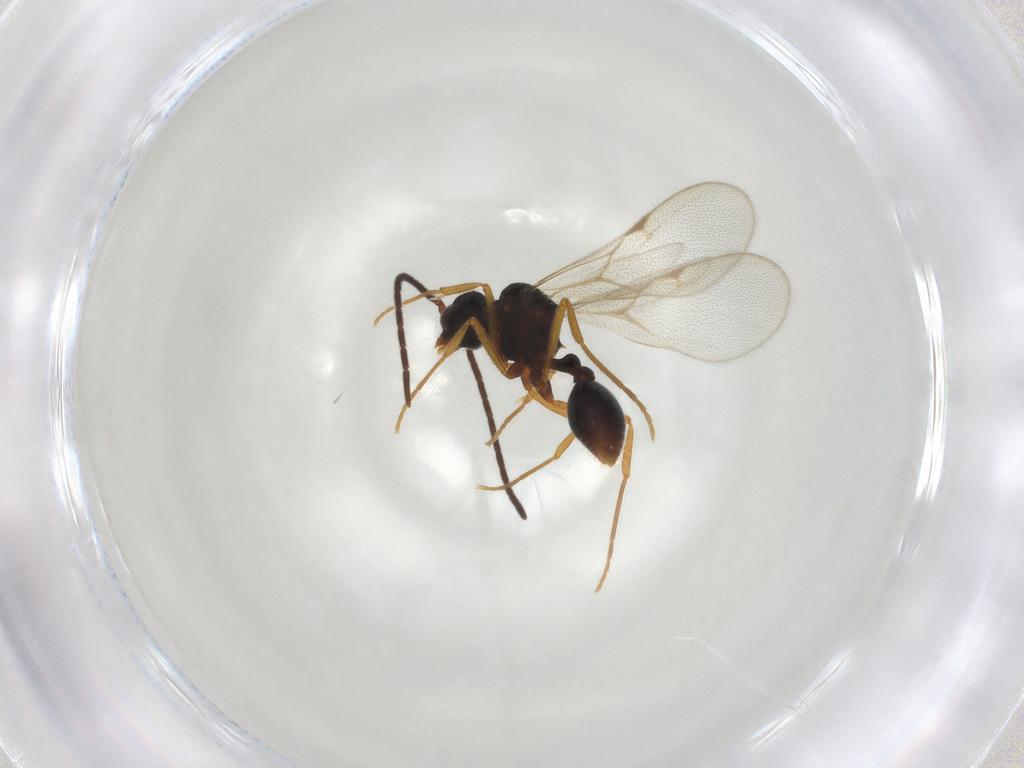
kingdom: Animalia
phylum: Arthropoda
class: Insecta
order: Hymenoptera
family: Formicidae
